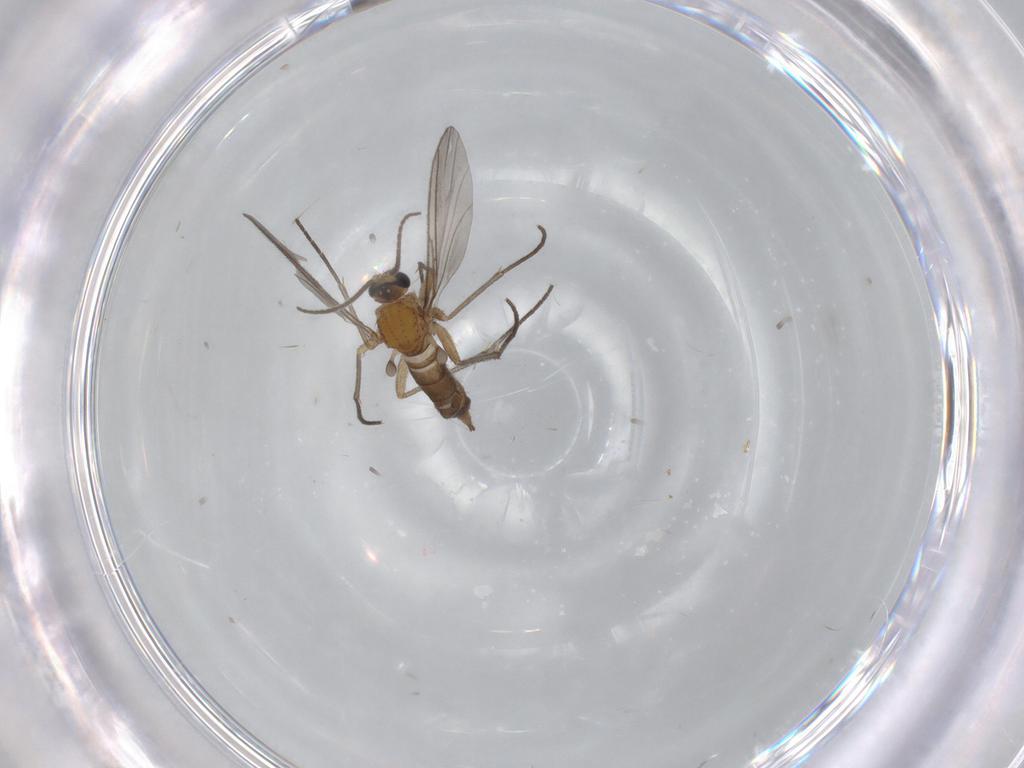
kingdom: Animalia
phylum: Arthropoda
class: Insecta
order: Diptera
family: Sciaridae
